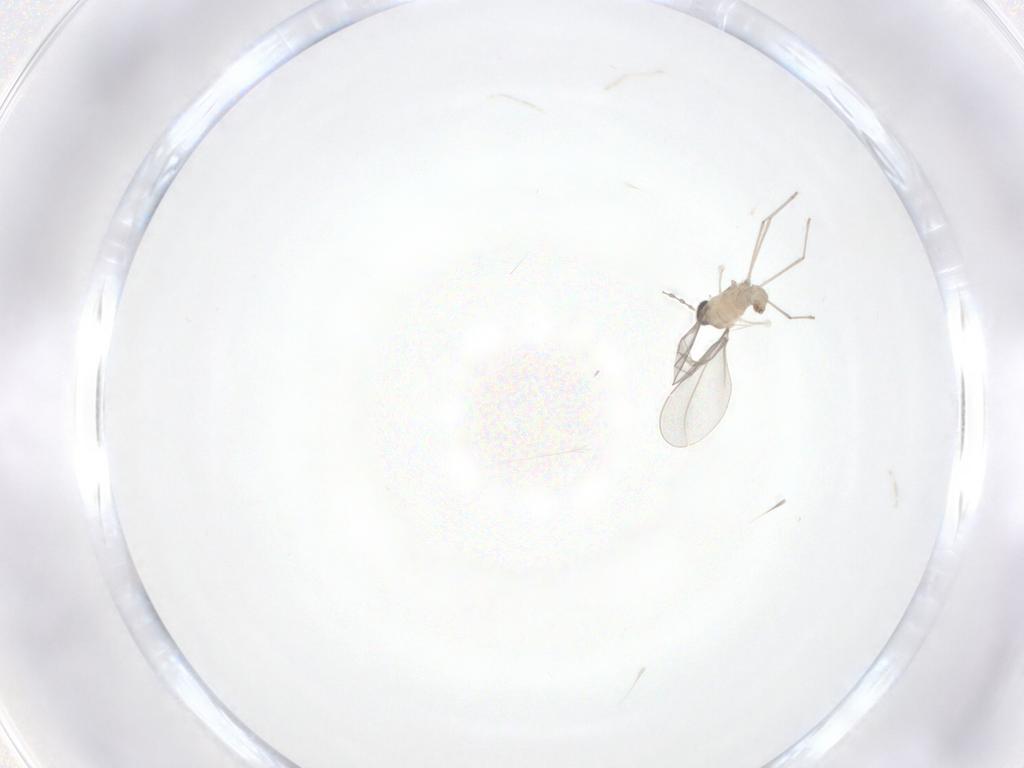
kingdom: Animalia
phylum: Arthropoda
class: Insecta
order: Diptera
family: Cecidomyiidae
